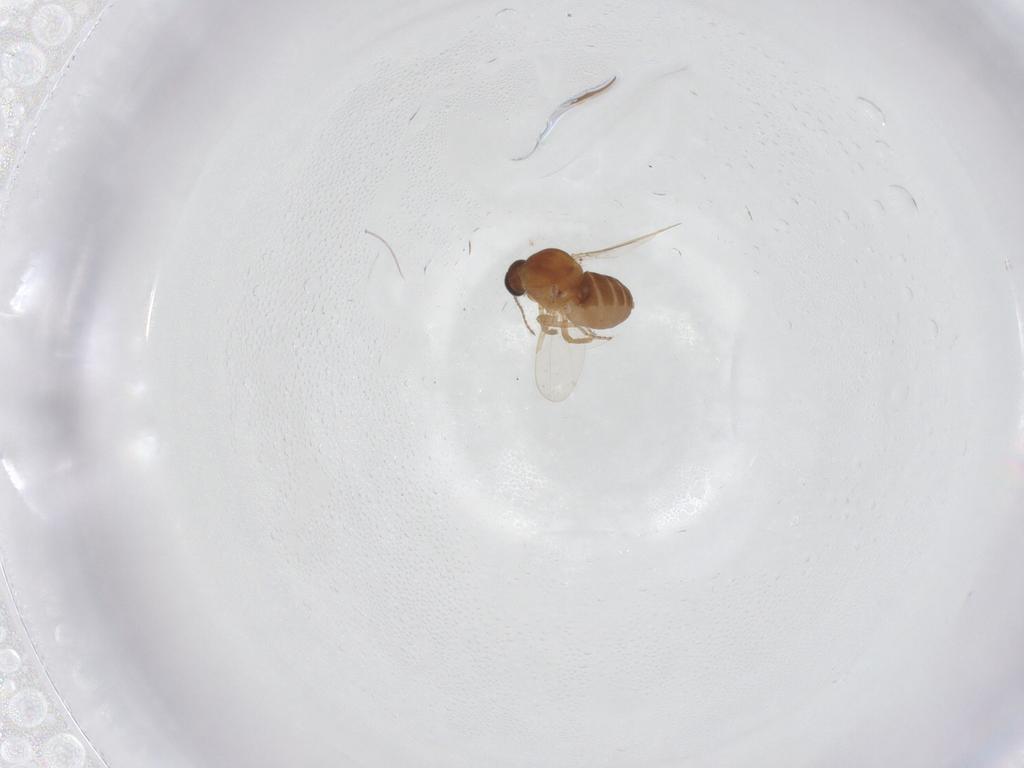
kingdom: Animalia
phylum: Arthropoda
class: Insecta
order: Diptera
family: Ceratopogonidae
